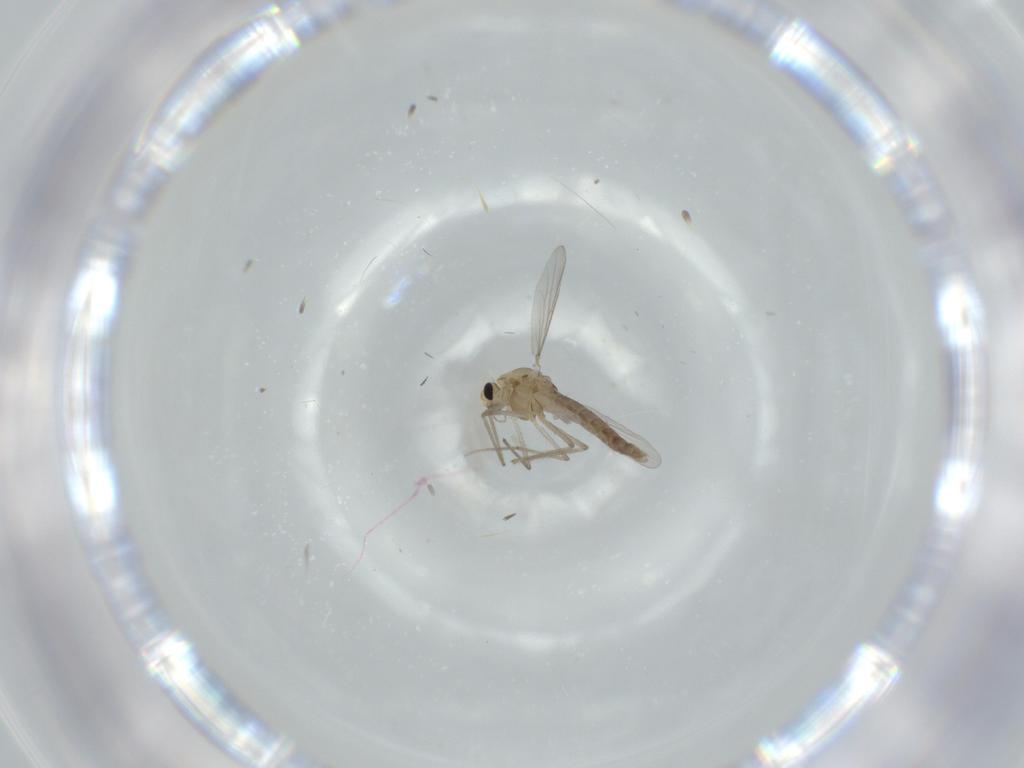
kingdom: Animalia
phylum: Arthropoda
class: Insecta
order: Diptera
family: Chironomidae
